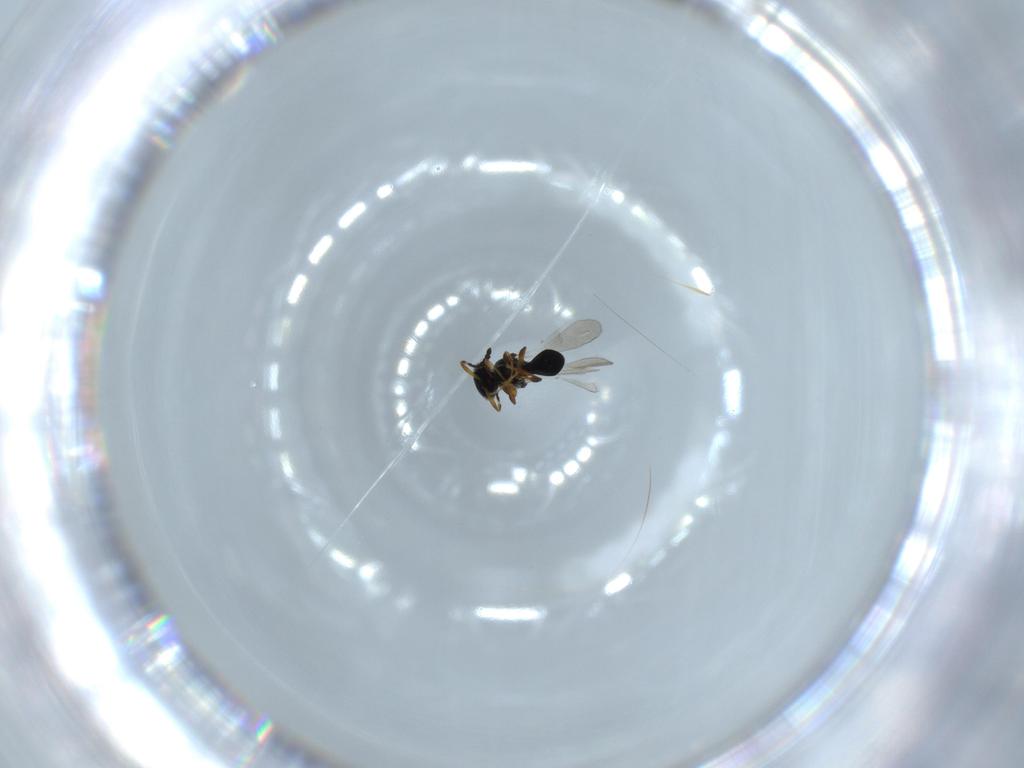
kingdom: Animalia
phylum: Arthropoda
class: Insecta
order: Hymenoptera
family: Platygastridae
